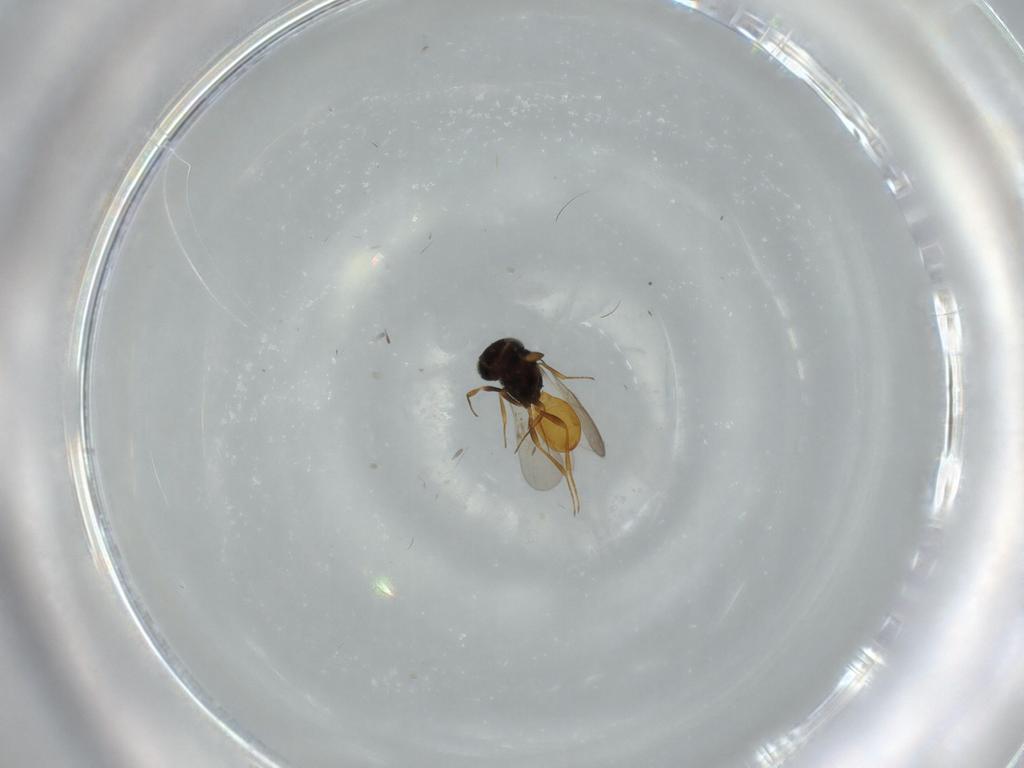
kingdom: Animalia
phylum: Arthropoda
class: Insecta
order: Hymenoptera
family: Scelionidae
